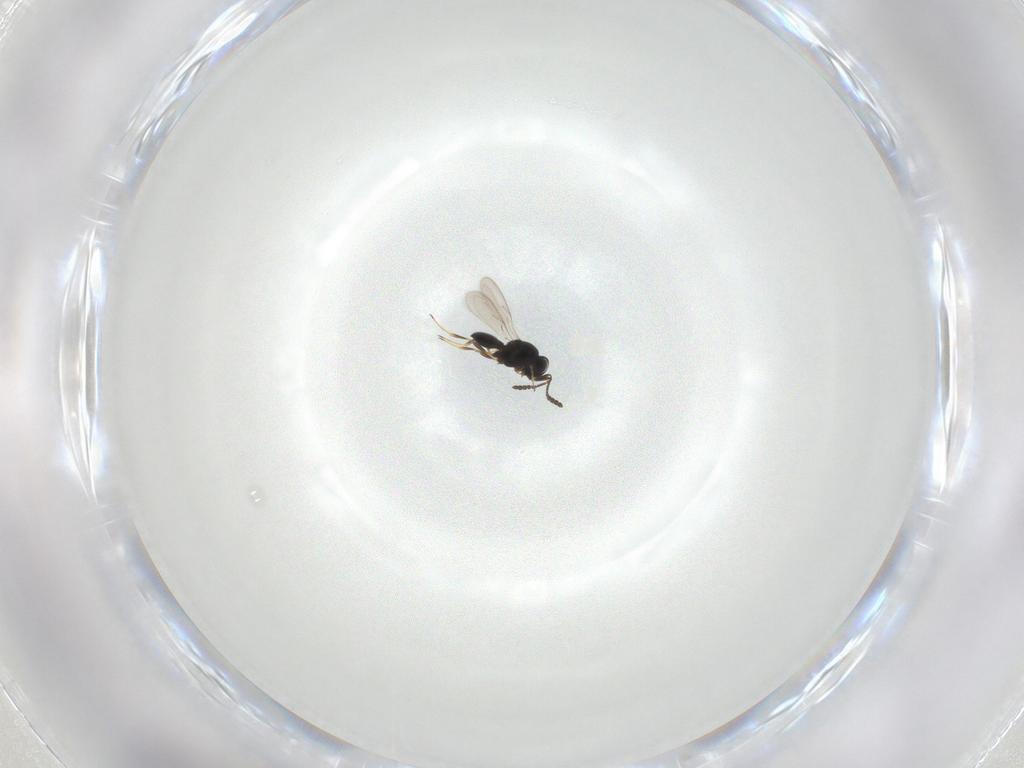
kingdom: Animalia
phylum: Arthropoda
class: Insecta
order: Hymenoptera
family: Scelionidae
